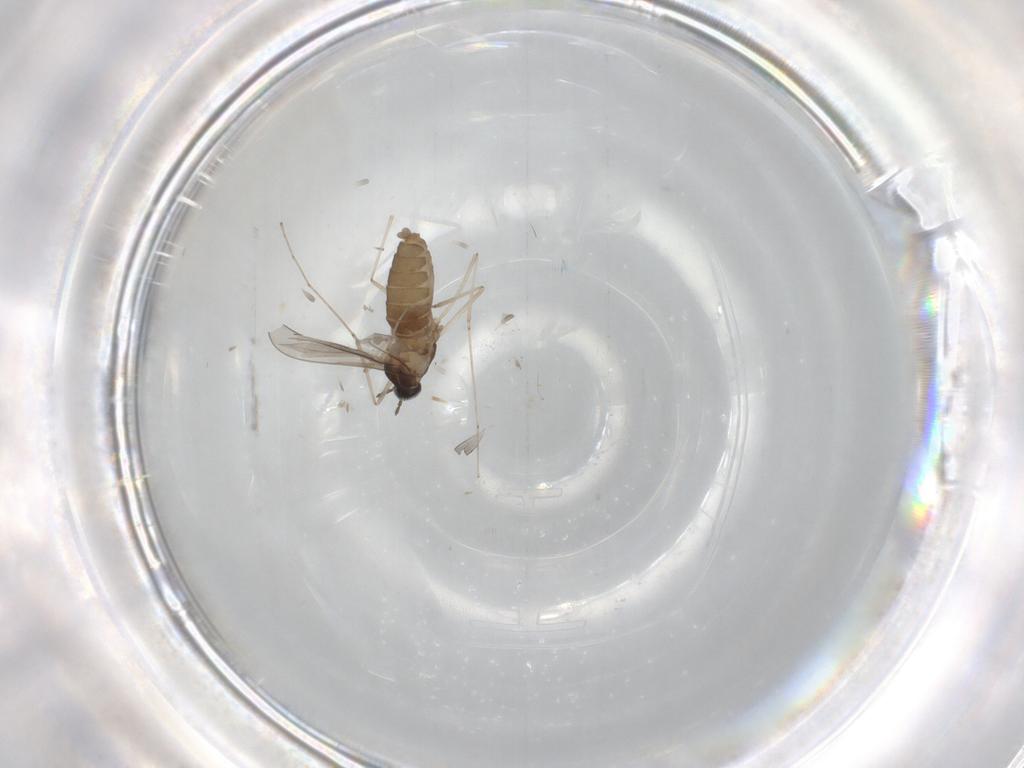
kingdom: Animalia
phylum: Arthropoda
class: Insecta
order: Diptera
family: Cecidomyiidae
